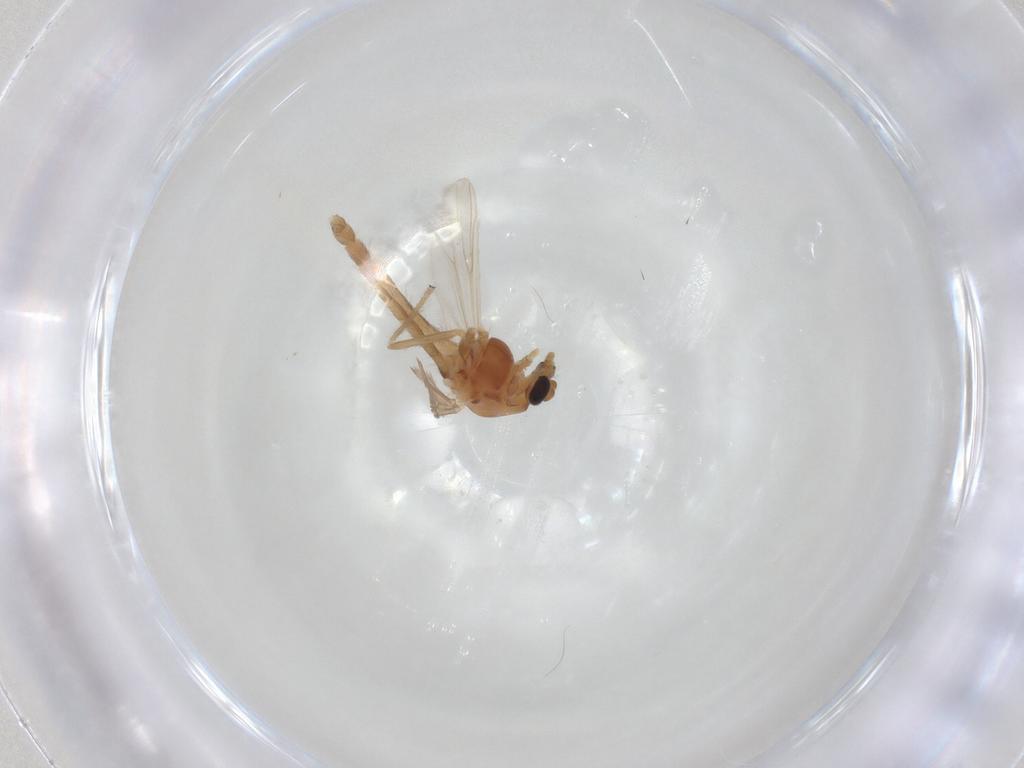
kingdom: Animalia
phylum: Arthropoda
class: Insecta
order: Diptera
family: Chironomidae
